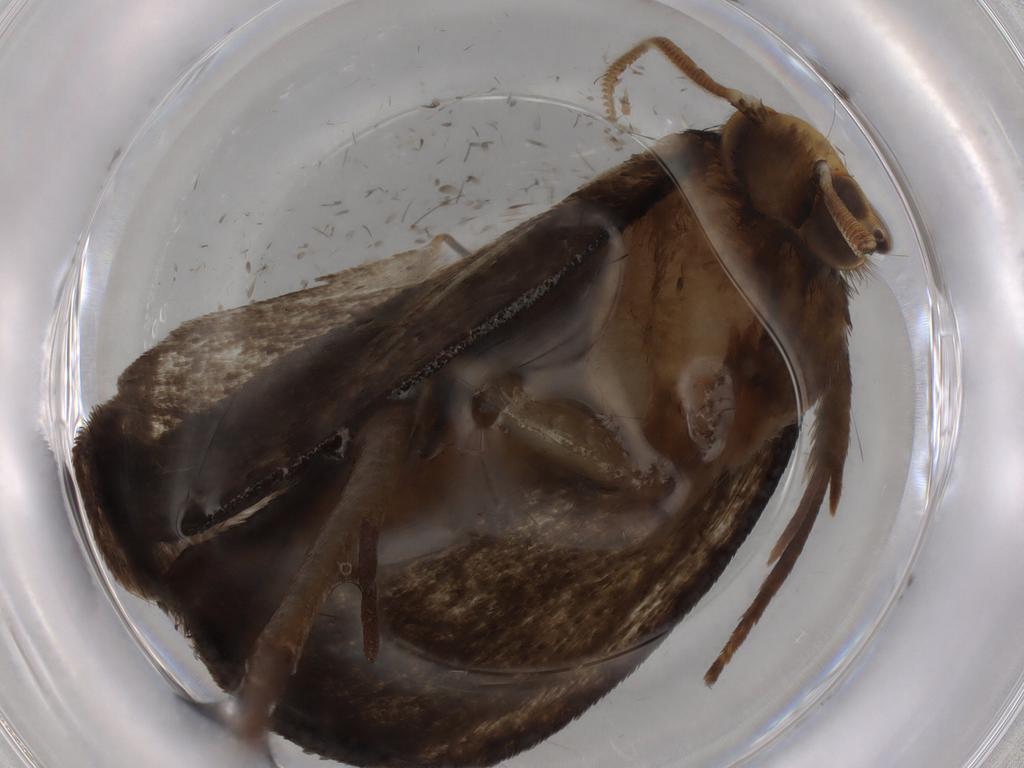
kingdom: Animalia
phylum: Arthropoda
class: Insecta
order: Lepidoptera
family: Tineidae
